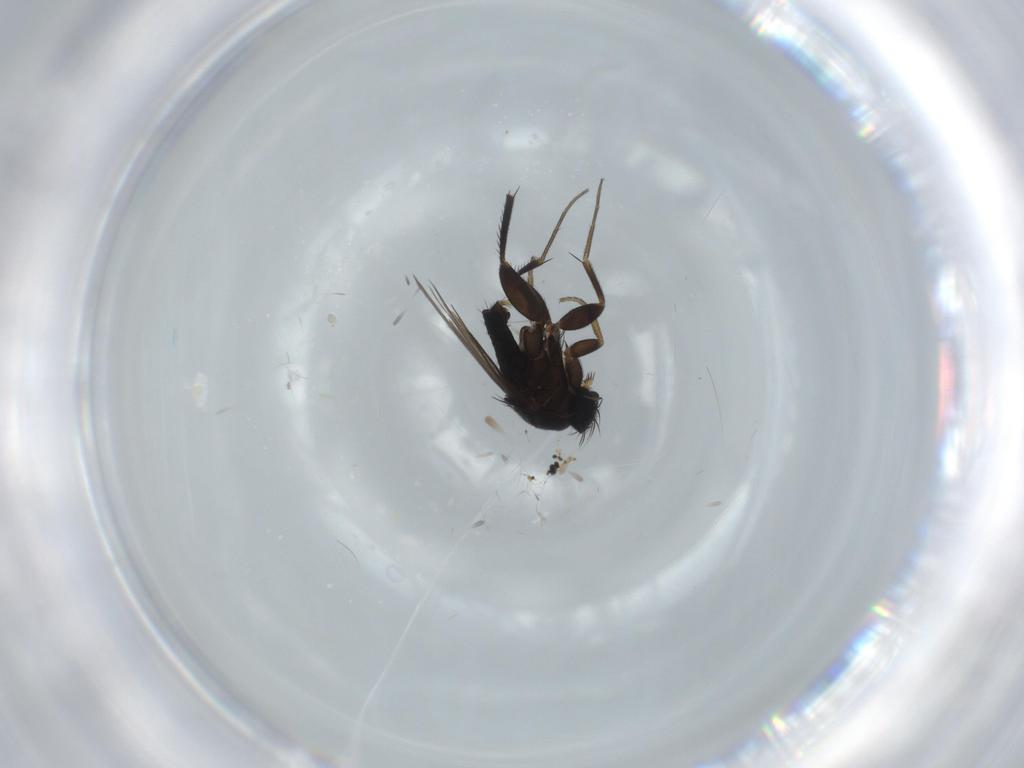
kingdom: Animalia
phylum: Arthropoda
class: Insecta
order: Diptera
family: Phoridae
